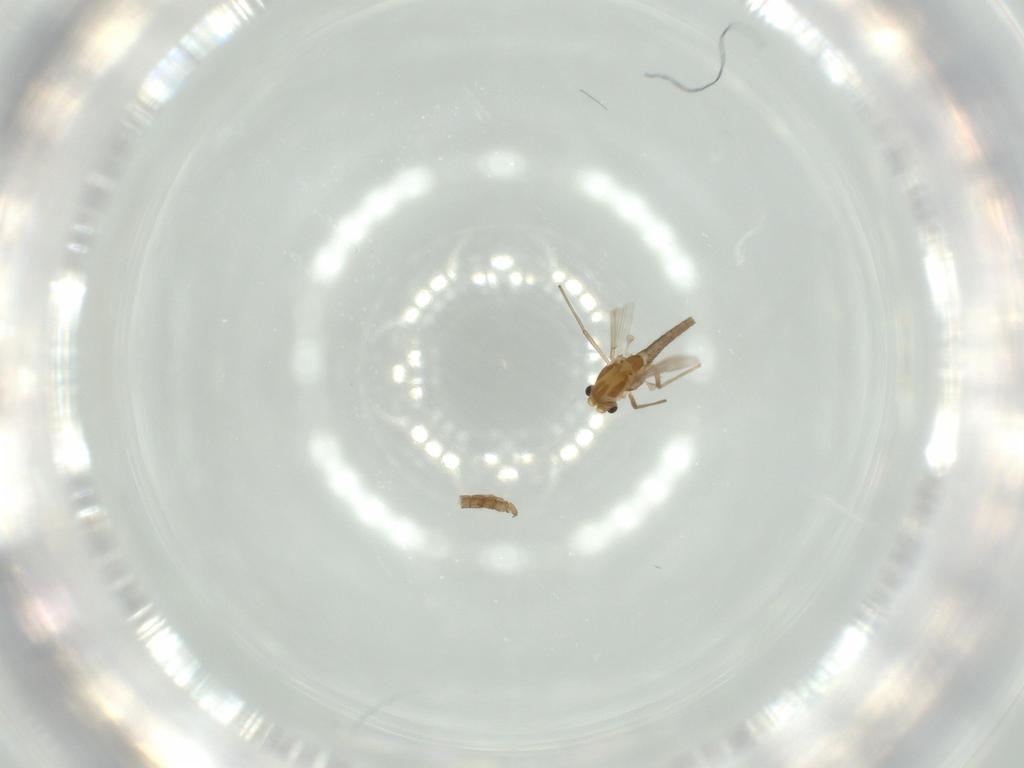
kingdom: Animalia
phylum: Arthropoda
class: Insecta
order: Diptera
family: Chironomidae
